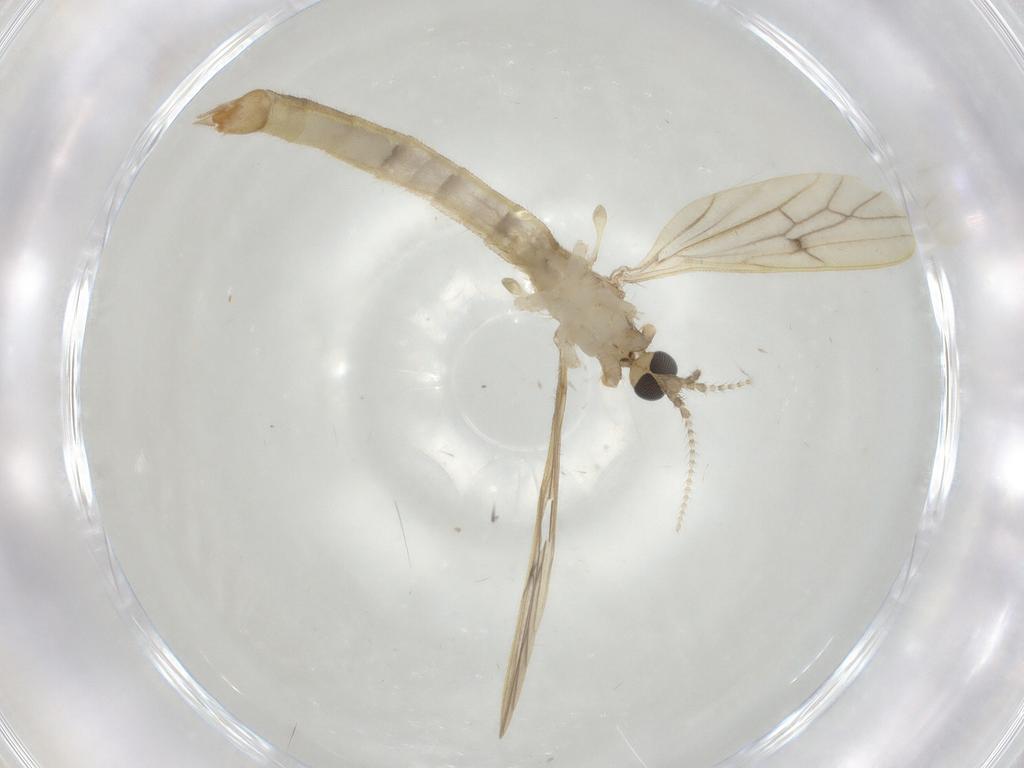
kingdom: Animalia
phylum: Arthropoda
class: Insecta
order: Diptera
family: Limoniidae
